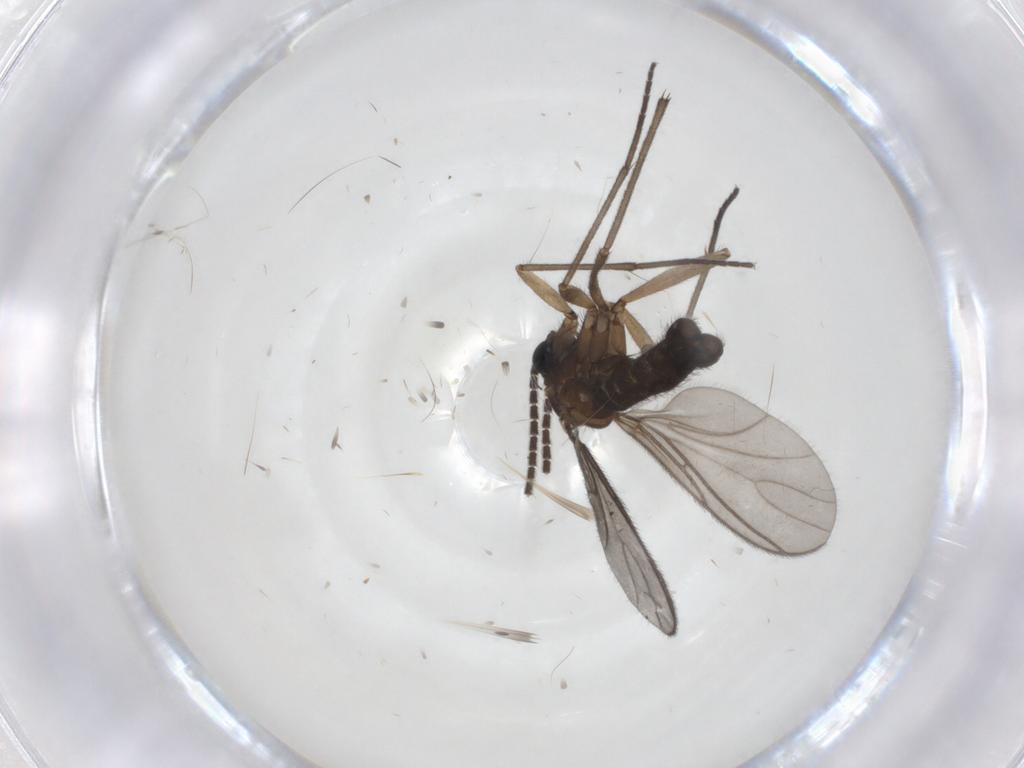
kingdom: Animalia
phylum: Arthropoda
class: Insecta
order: Diptera
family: Sciaridae
